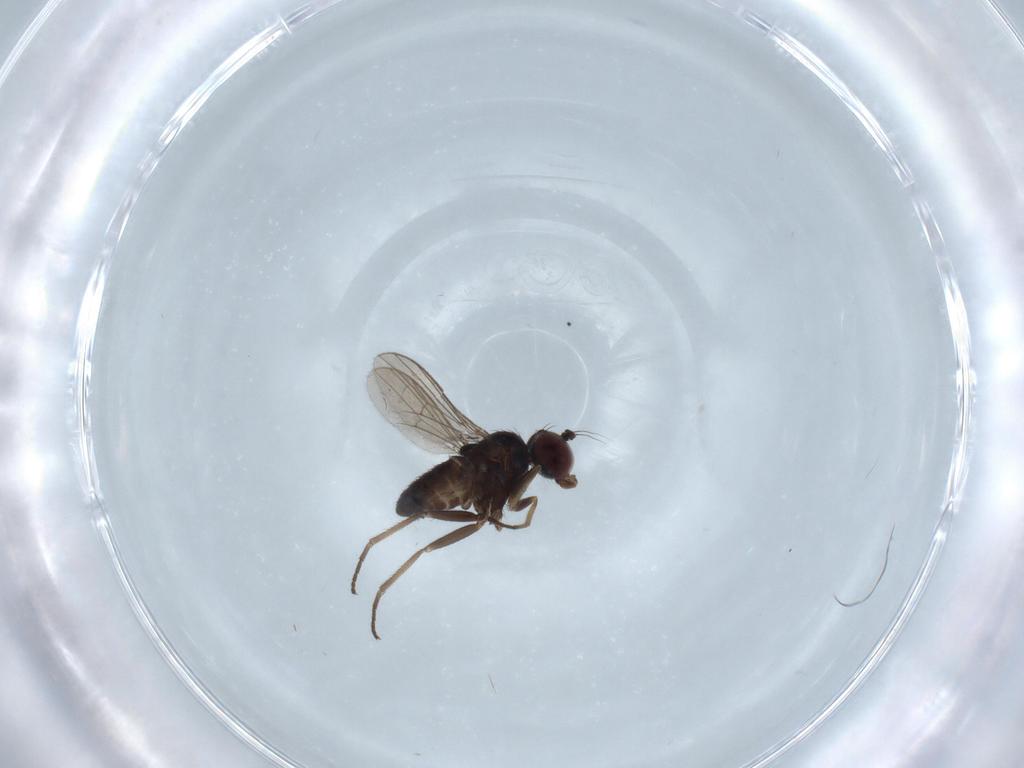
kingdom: Animalia
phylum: Arthropoda
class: Insecta
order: Diptera
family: Dolichopodidae
